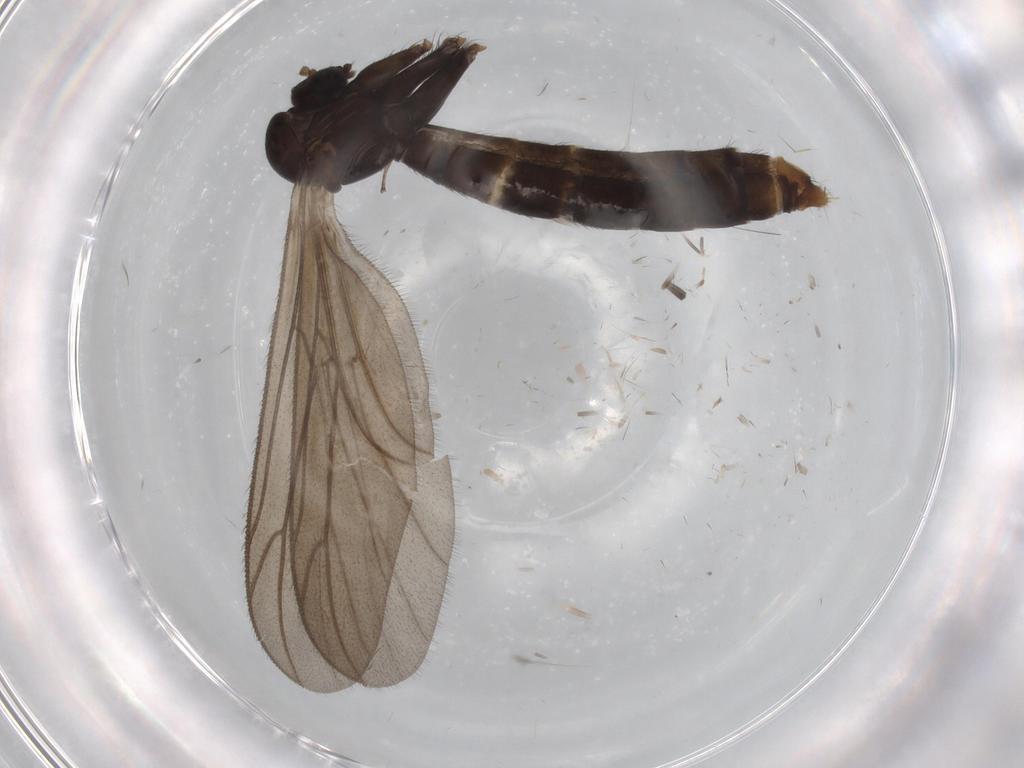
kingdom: Animalia
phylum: Arthropoda
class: Insecta
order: Diptera
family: Ditomyiidae
